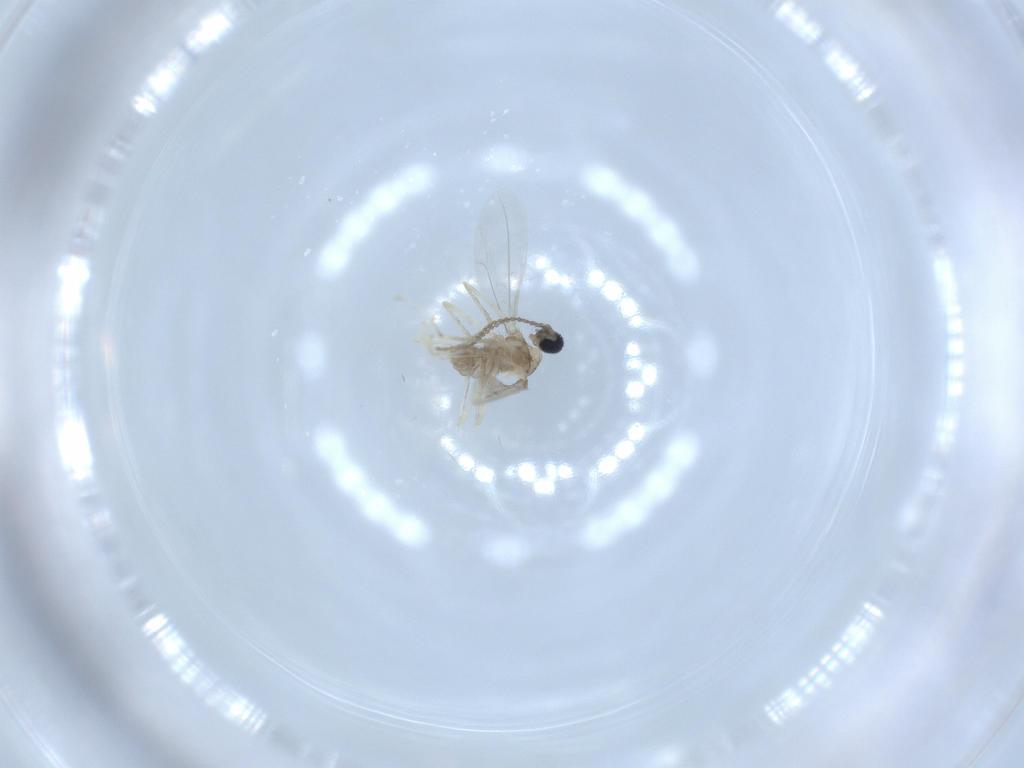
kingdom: Animalia
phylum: Arthropoda
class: Insecta
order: Diptera
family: Cecidomyiidae
